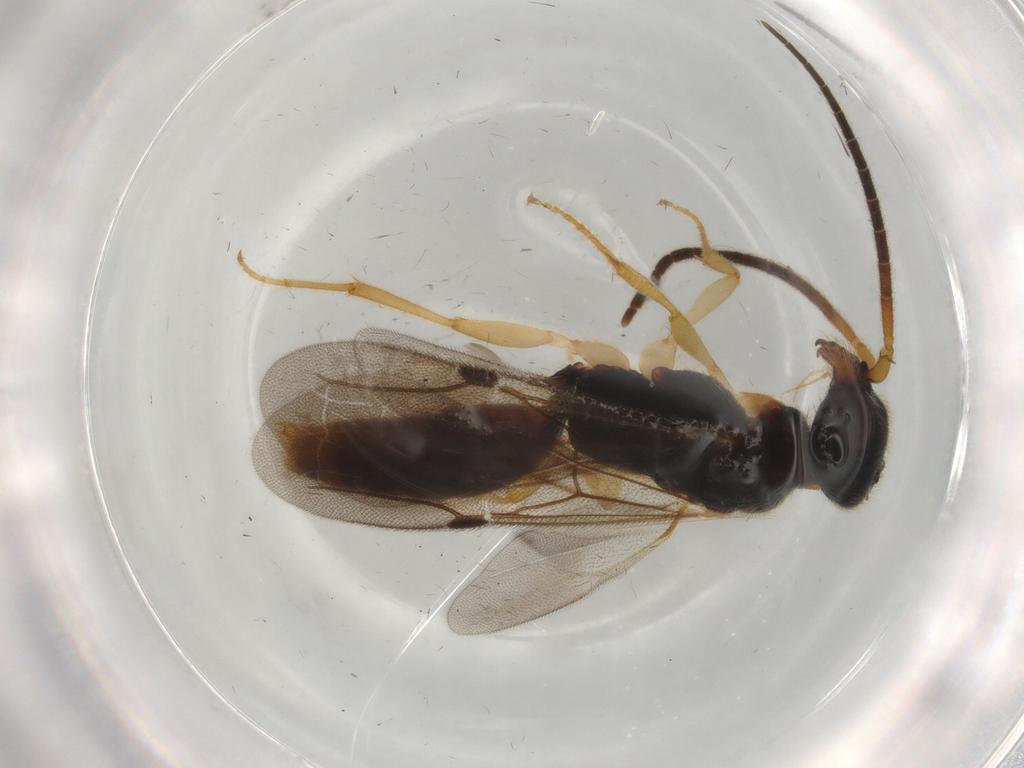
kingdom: Animalia
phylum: Arthropoda
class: Insecta
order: Hymenoptera
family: Bethylidae
